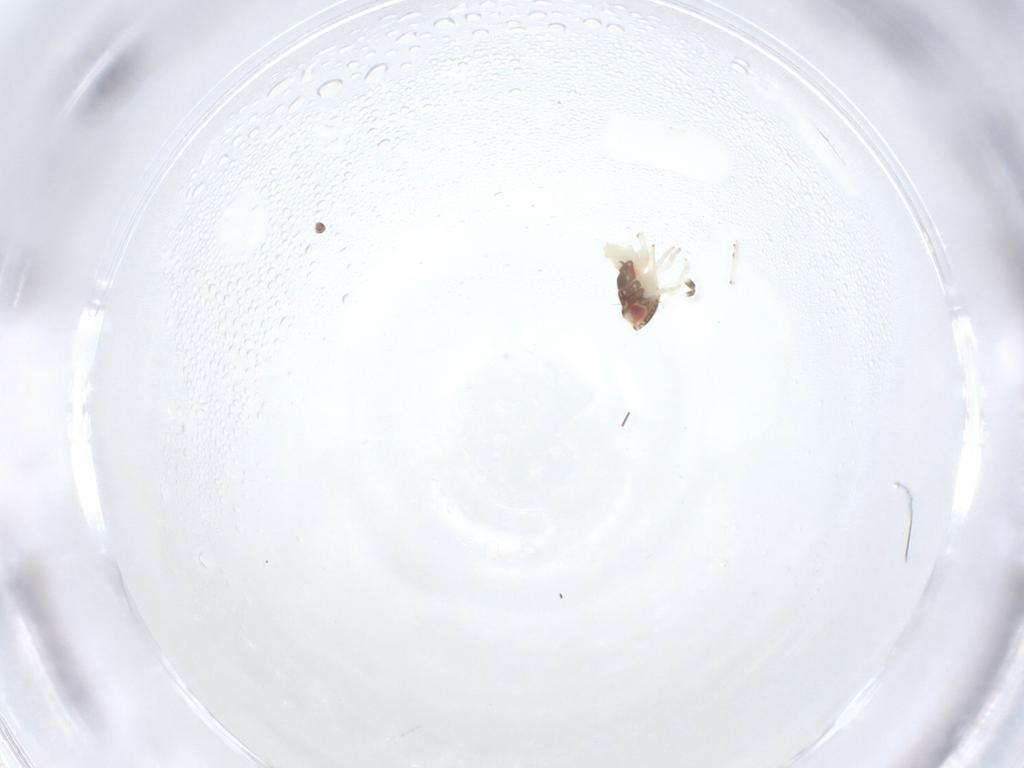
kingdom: Animalia
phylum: Arthropoda
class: Insecta
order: Hemiptera
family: Nogodinidae
